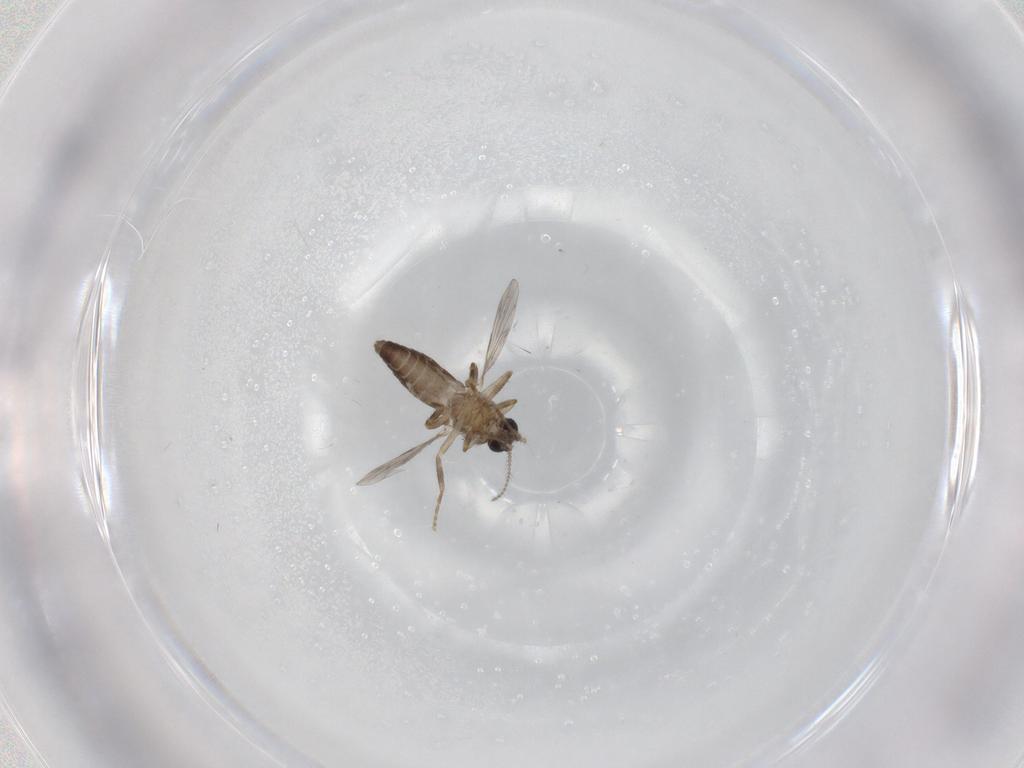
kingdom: Animalia
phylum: Arthropoda
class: Insecta
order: Diptera
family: Ceratopogonidae
